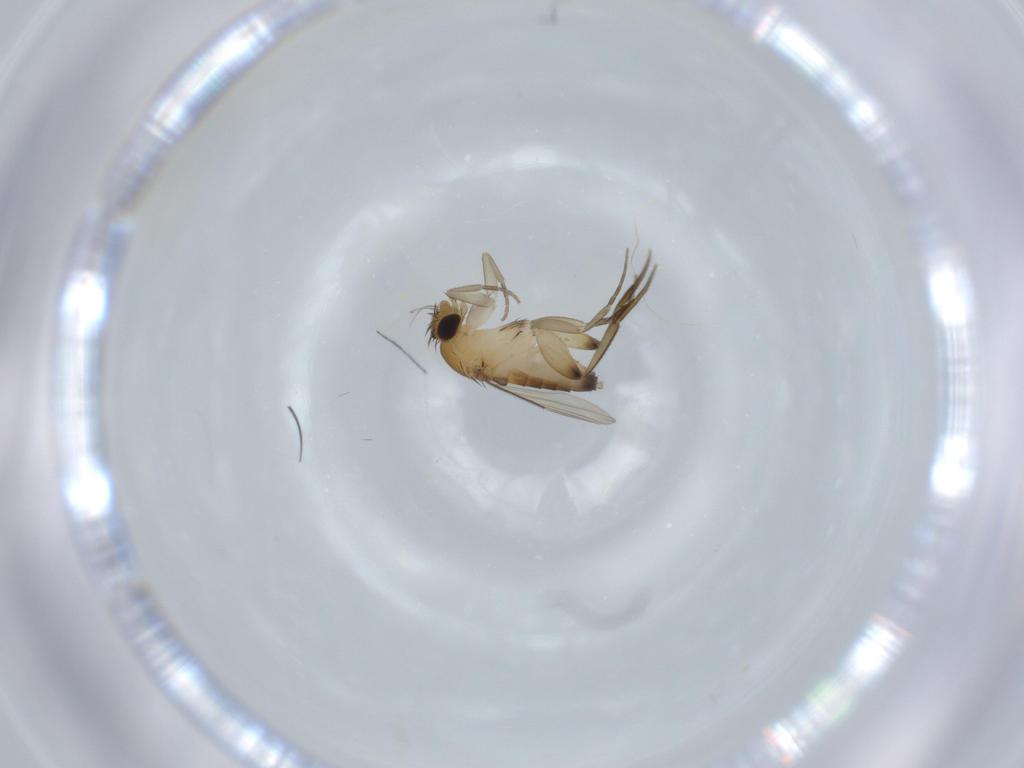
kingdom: Animalia
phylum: Arthropoda
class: Insecta
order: Diptera
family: Phoridae
